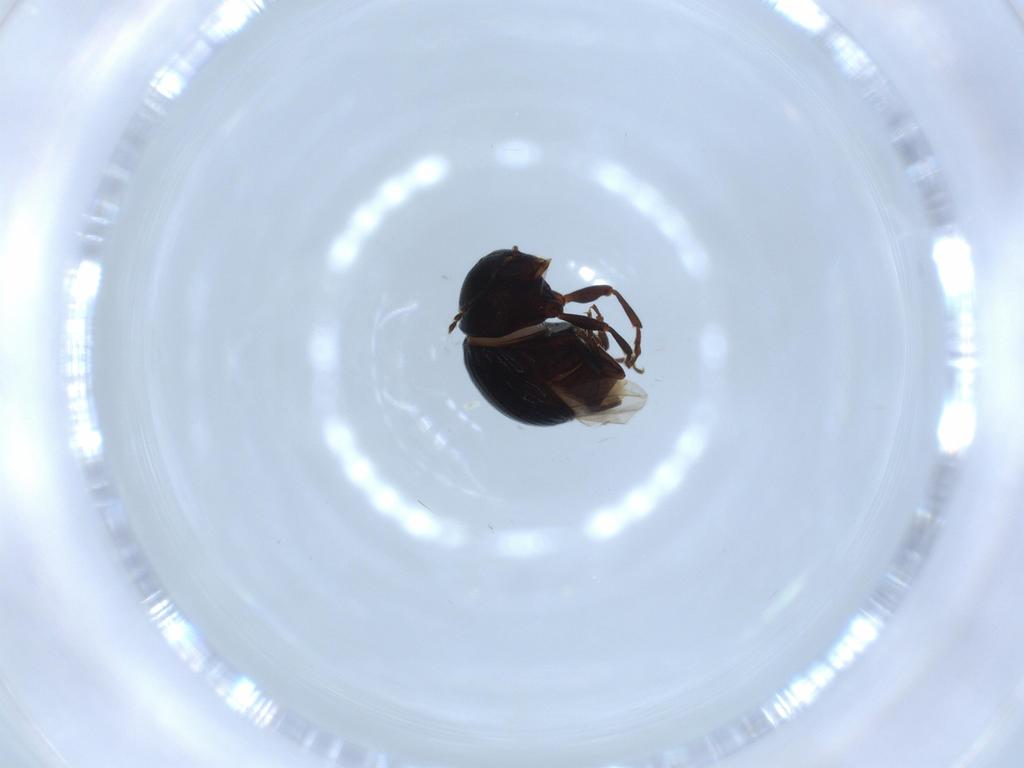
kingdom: Animalia
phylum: Arthropoda
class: Insecta
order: Coleoptera
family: Anthribidae
